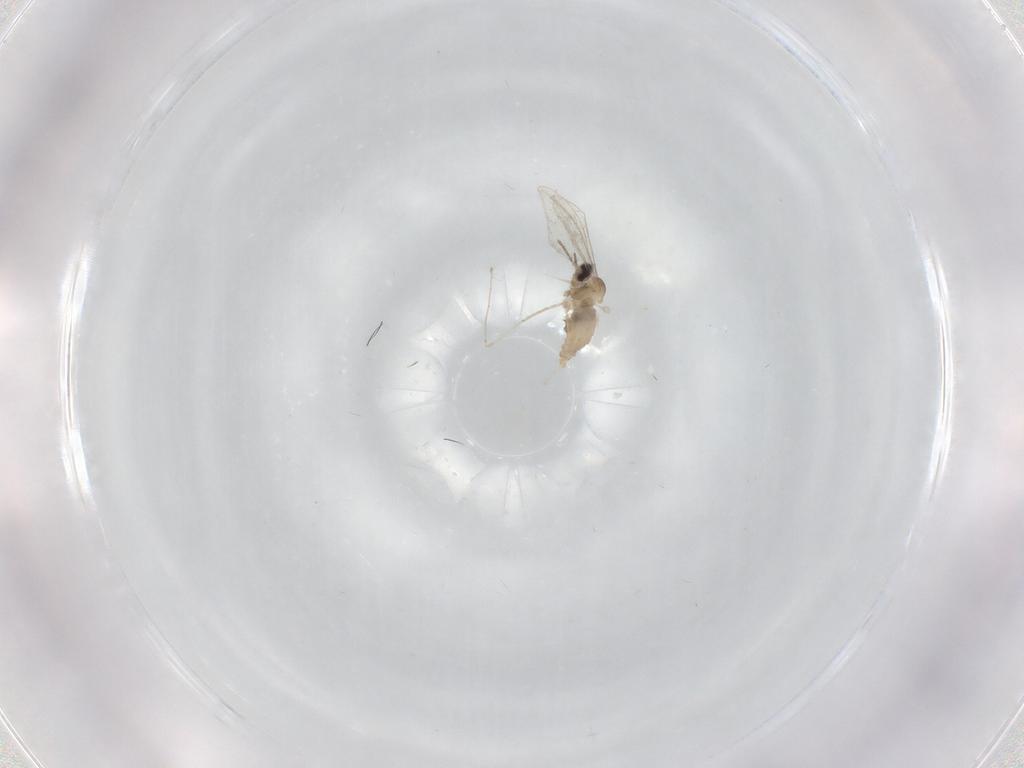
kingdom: Animalia
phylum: Arthropoda
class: Insecta
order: Diptera
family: Cecidomyiidae
